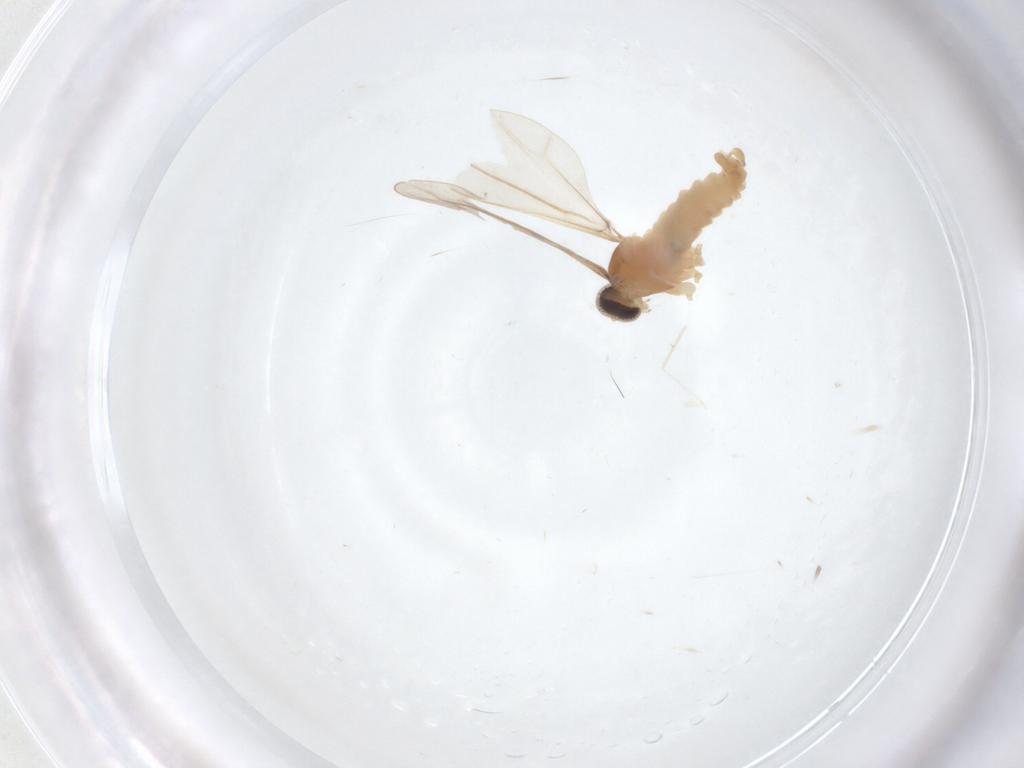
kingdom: Animalia
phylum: Arthropoda
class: Insecta
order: Diptera
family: Cecidomyiidae
